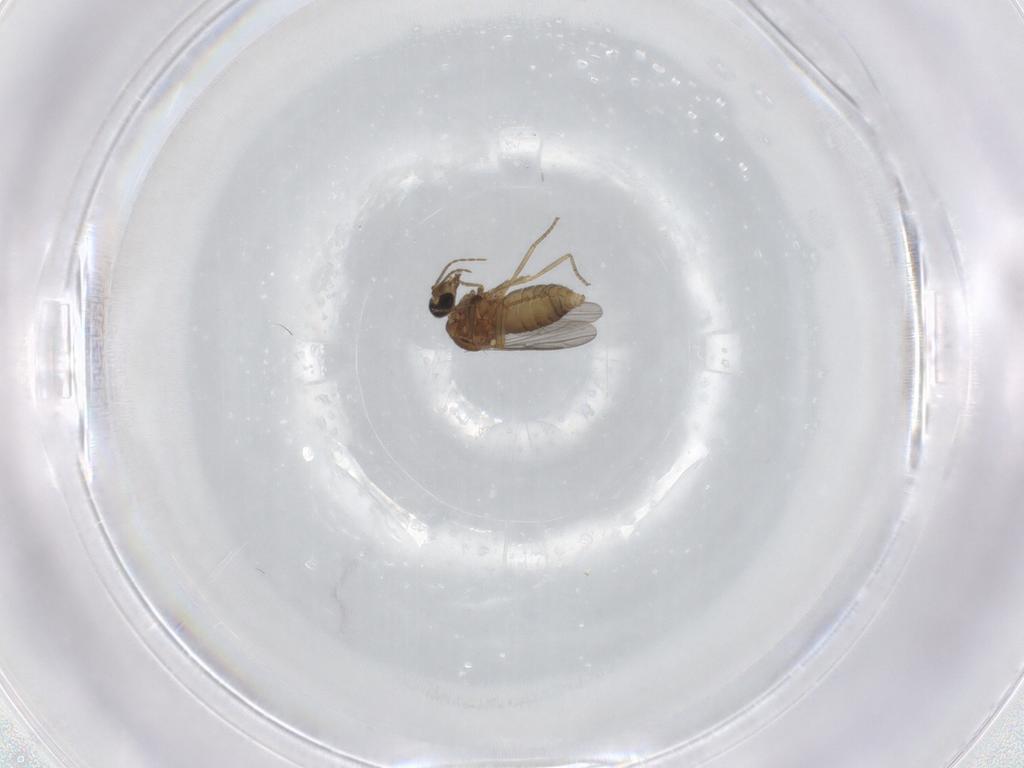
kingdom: Animalia
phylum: Arthropoda
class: Insecta
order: Diptera
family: Ceratopogonidae
